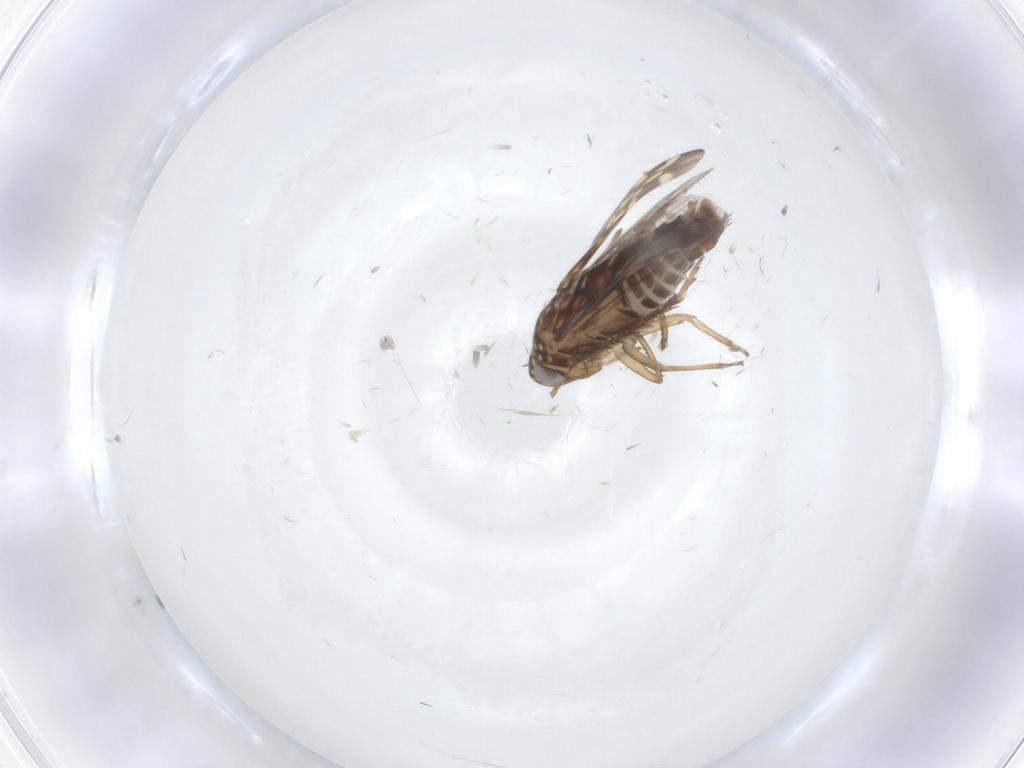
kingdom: Animalia
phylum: Arthropoda
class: Insecta
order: Hemiptera
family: Cicadellidae
